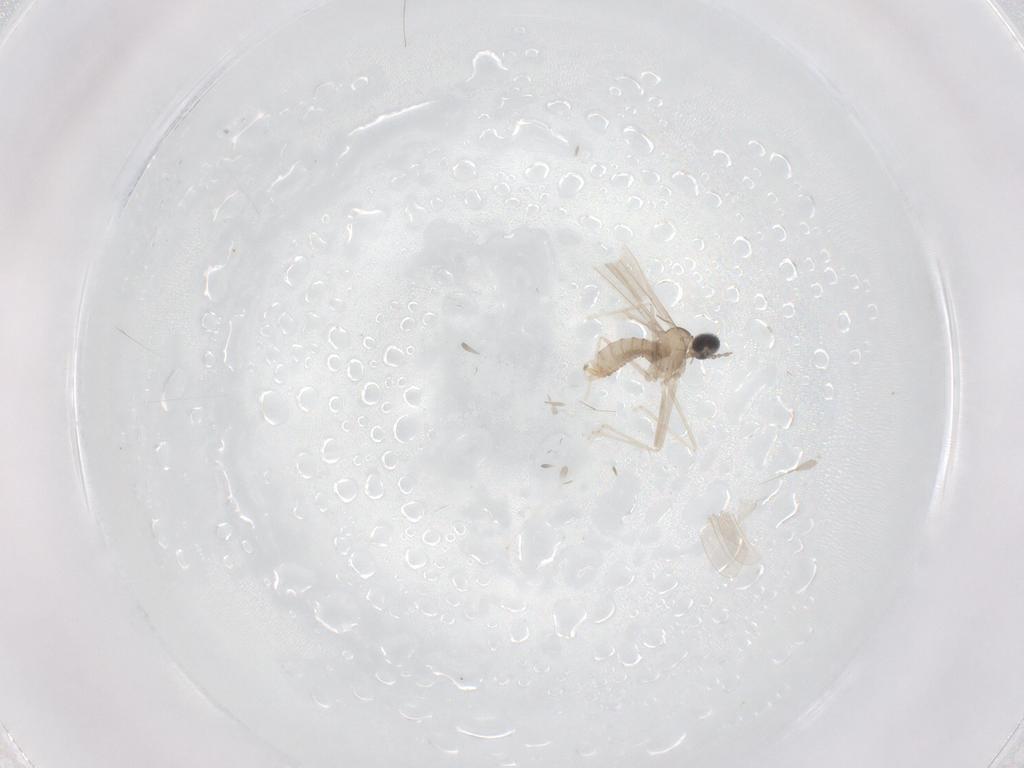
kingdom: Animalia
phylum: Arthropoda
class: Insecta
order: Diptera
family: Cecidomyiidae
